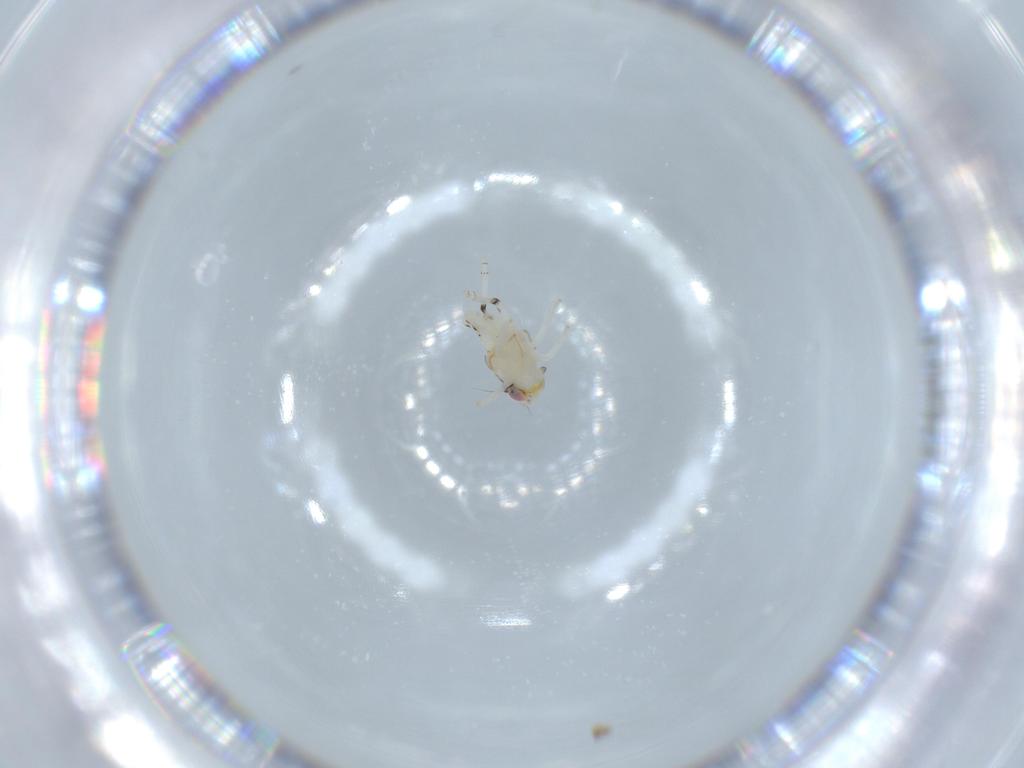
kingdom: Animalia
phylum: Arthropoda
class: Insecta
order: Hemiptera
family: Nogodinidae
